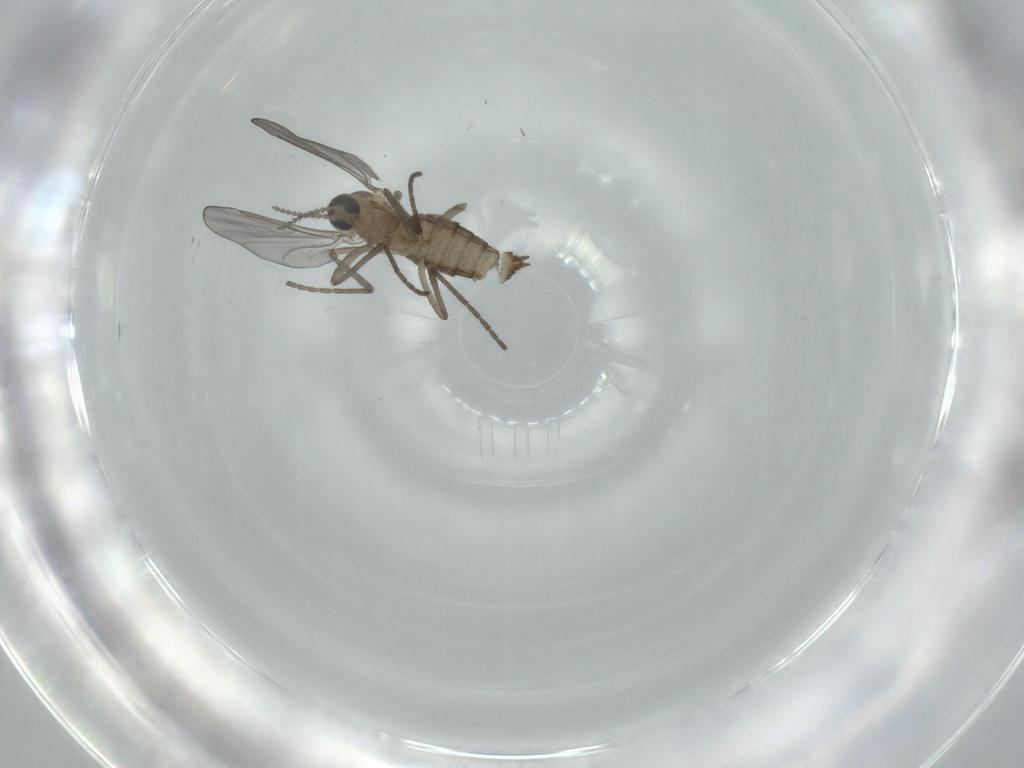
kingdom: Animalia
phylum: Arthropoda
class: Insecta
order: Diptera
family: Cecidomyiidae
